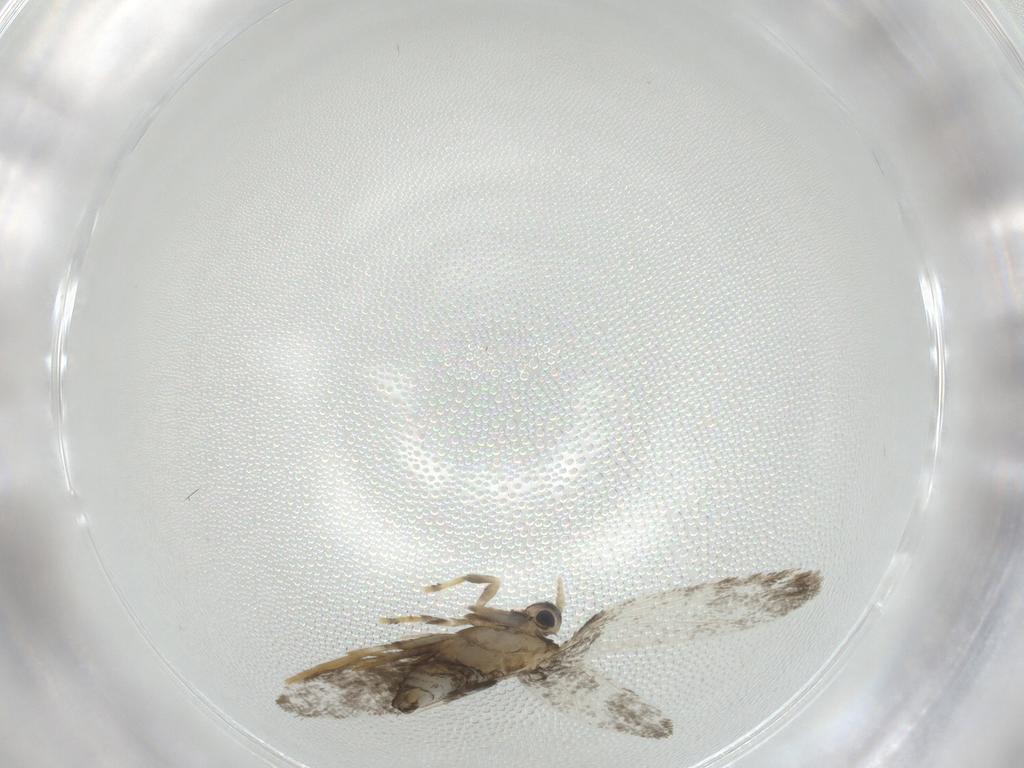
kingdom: Animalia
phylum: Arthropoda
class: Insecta
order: Lepidoptera
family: Psychidae
